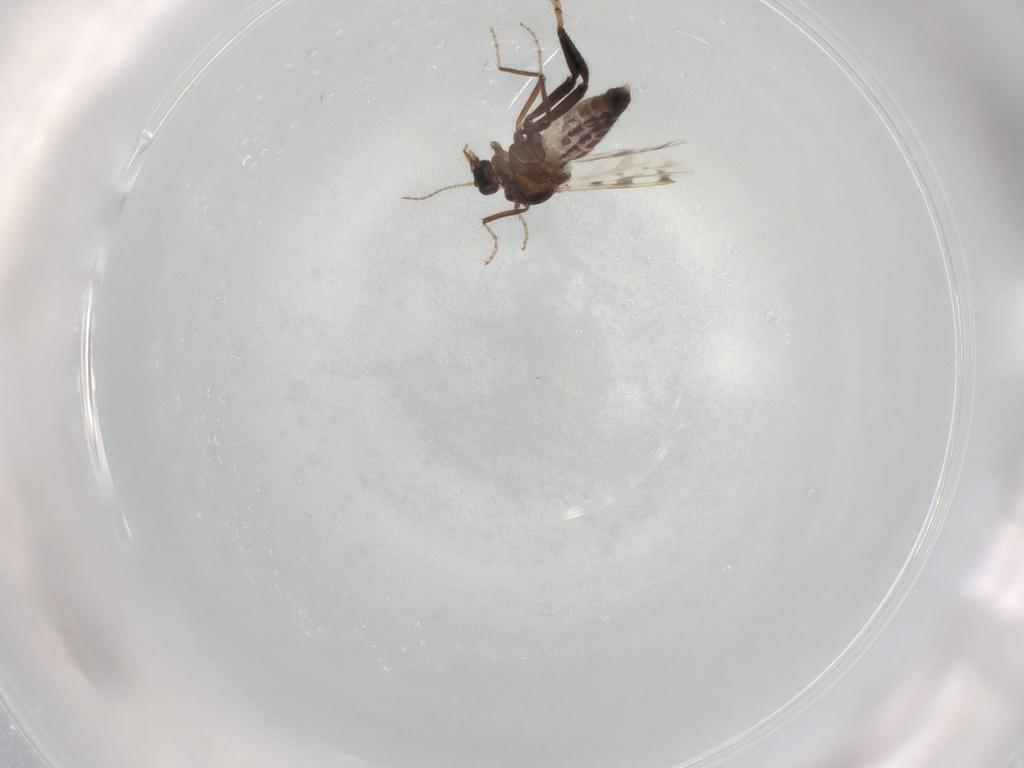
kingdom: Animalia
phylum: Arthropoda
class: Insecta
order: Diptera
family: Ceratopogonidae
